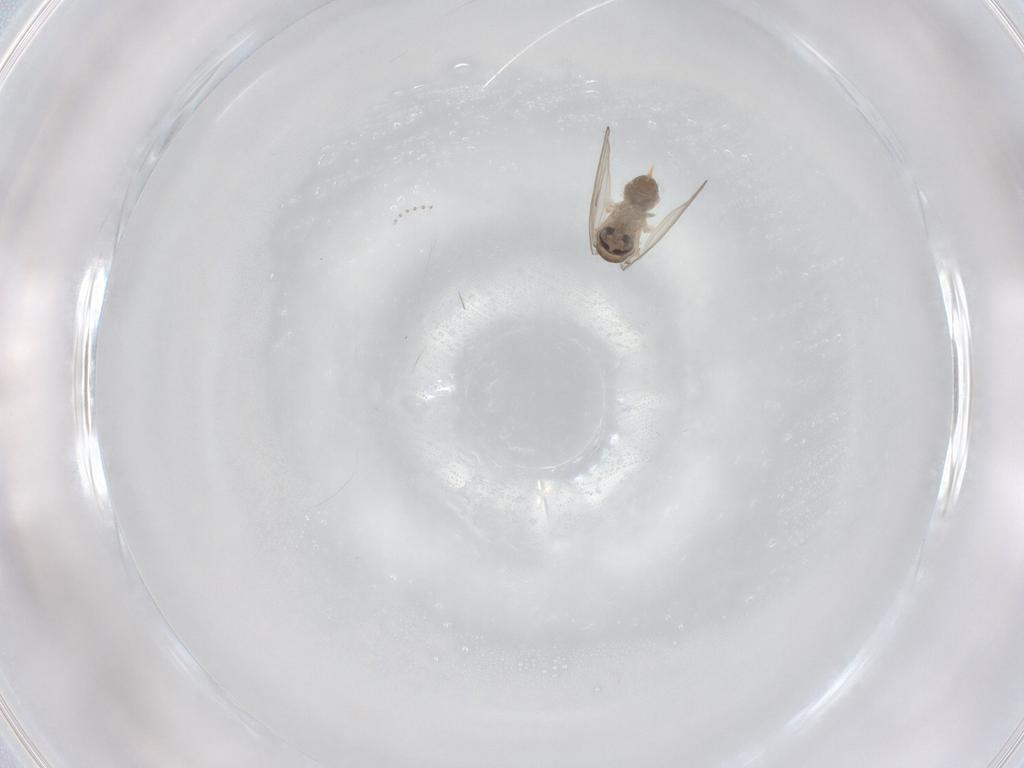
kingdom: Animalia
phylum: Arthropoda
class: Insecta
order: Diptera
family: Psychodidae
